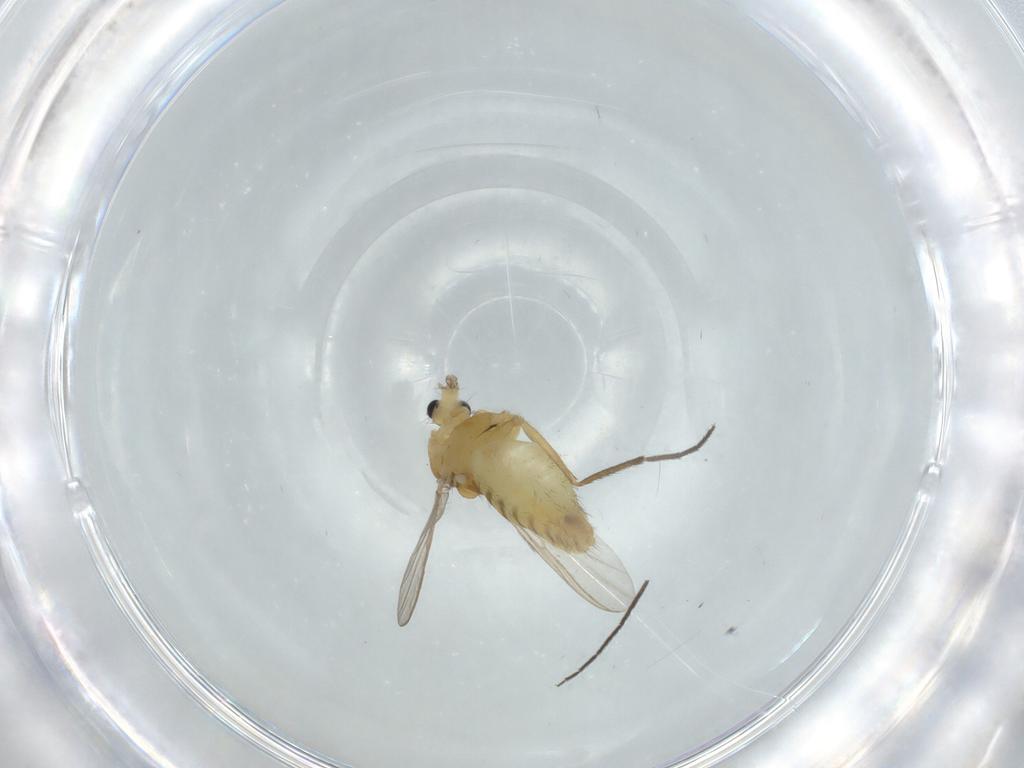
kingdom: Animalia
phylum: Arthropoda
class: Insecta
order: Diptera
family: Chironomidae
